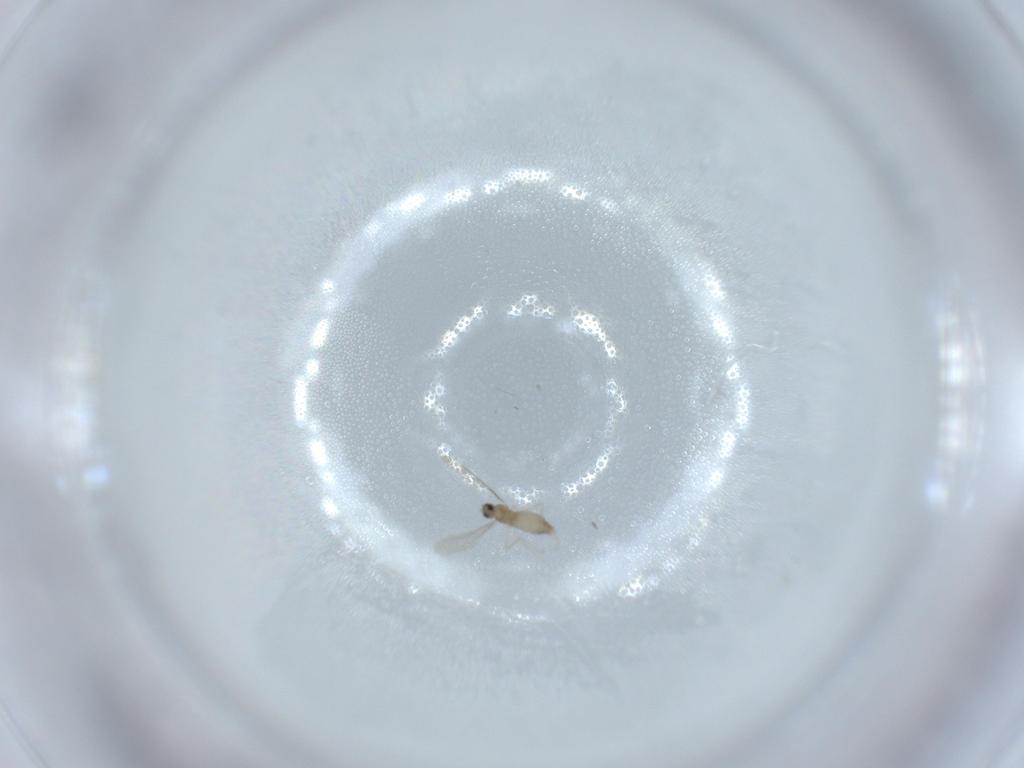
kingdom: Animalia
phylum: Arthropoda
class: Insecta
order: Diptera
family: Cecidomyiidae
